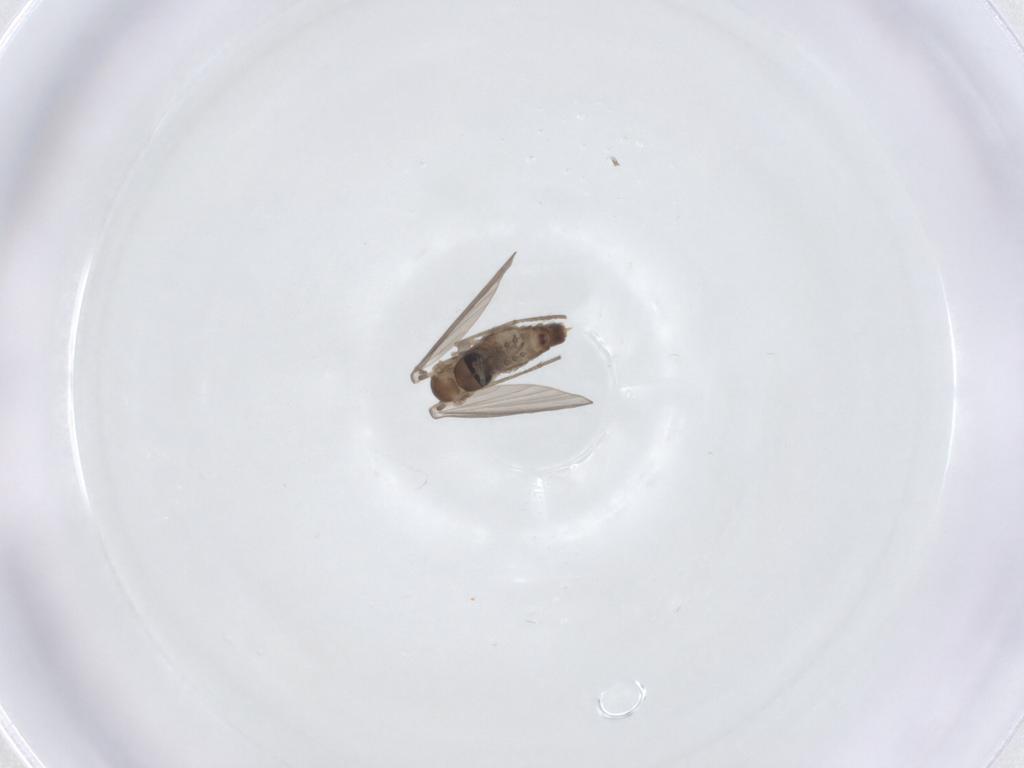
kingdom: Animalia
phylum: Arthropoda
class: Insecta
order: Diptera
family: Psychodidae
